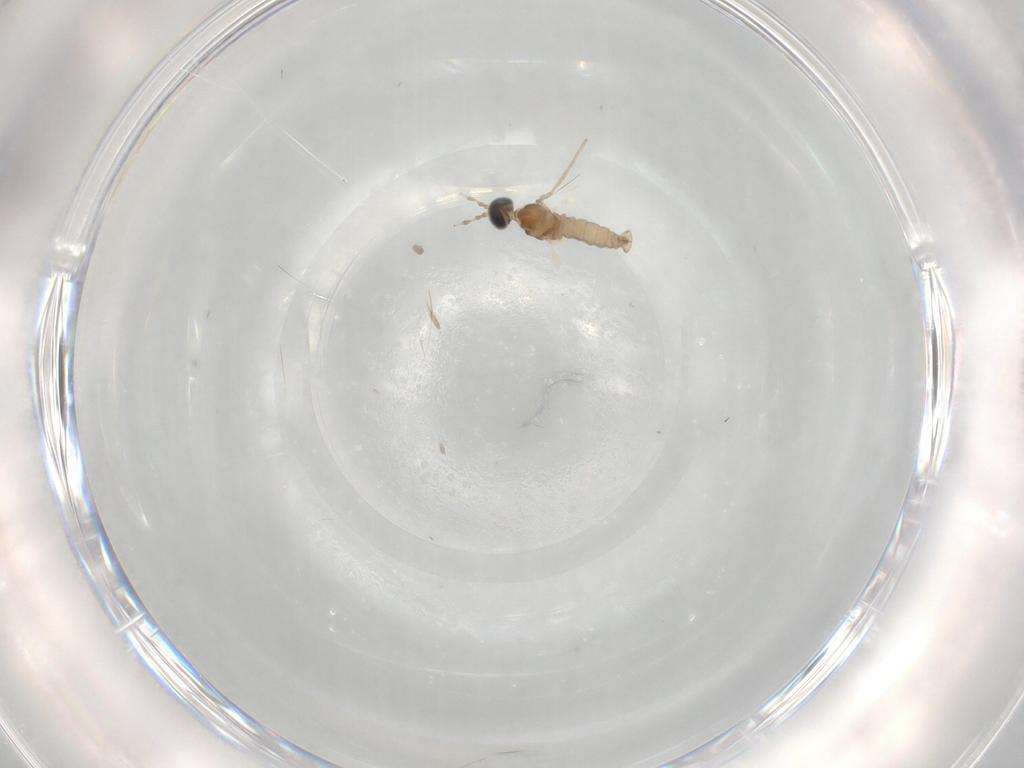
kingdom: Animalia
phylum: Arthropoda
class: Insecta
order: Diptera
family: Cecidomyiidae
